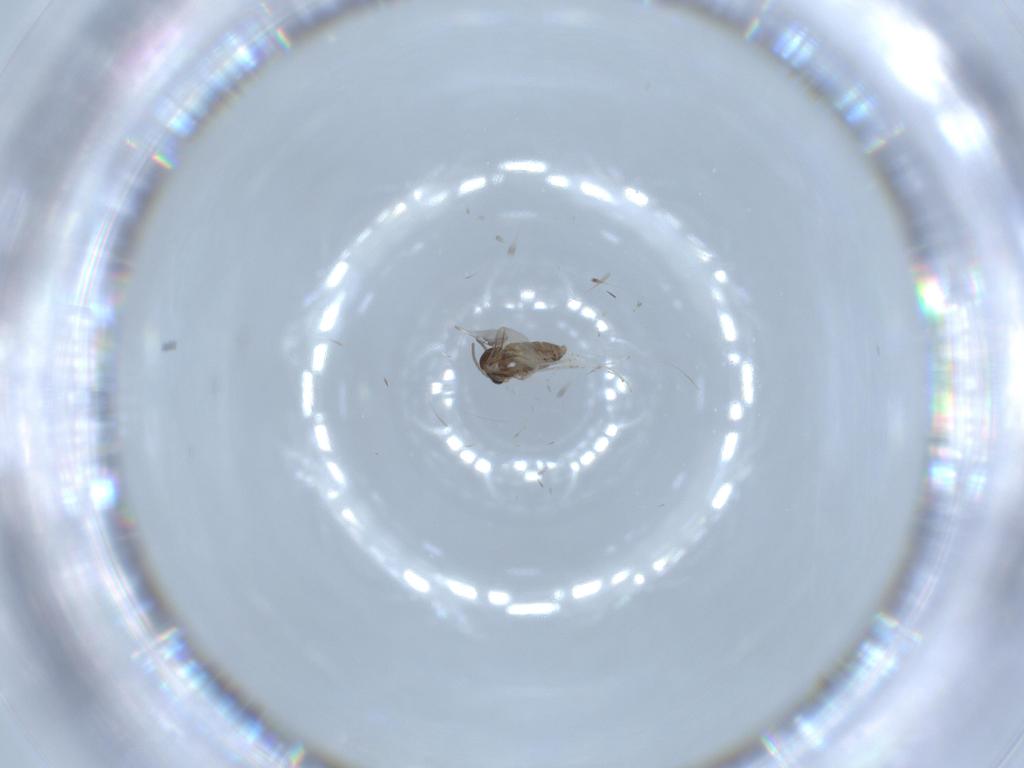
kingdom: Animalia
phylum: Arthropoda
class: Insecta
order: Diptera
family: Cecidomyiidae
